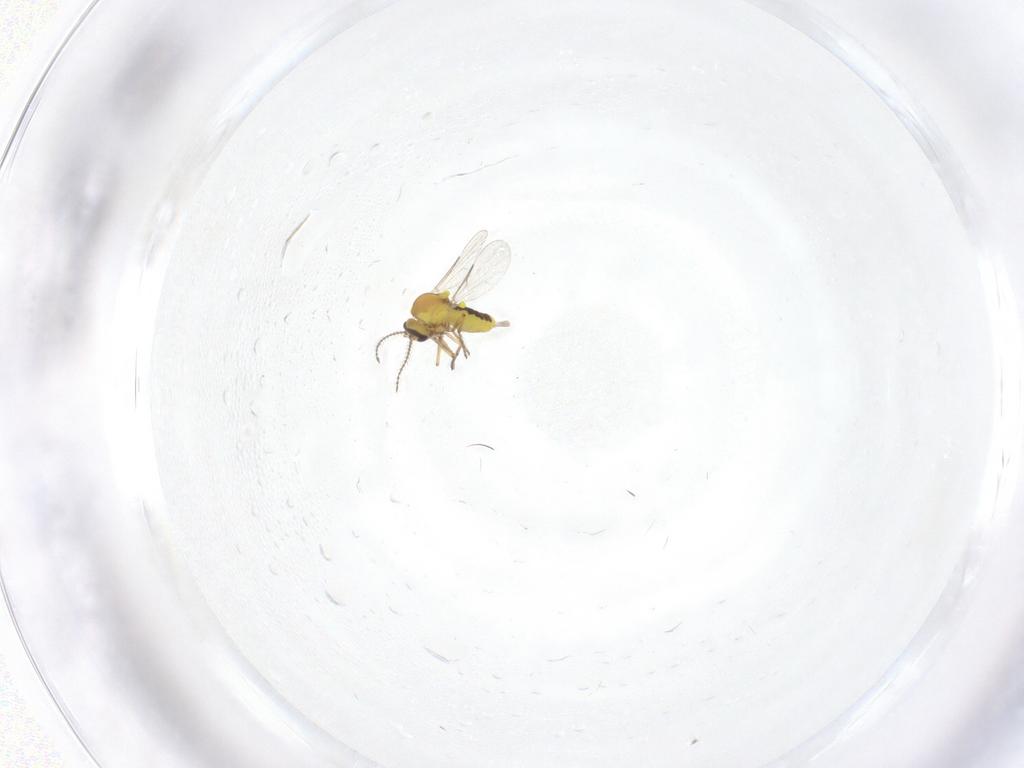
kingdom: Animalia
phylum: Arthropoda
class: Insecta
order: Diptera
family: Ceratopogonidae
